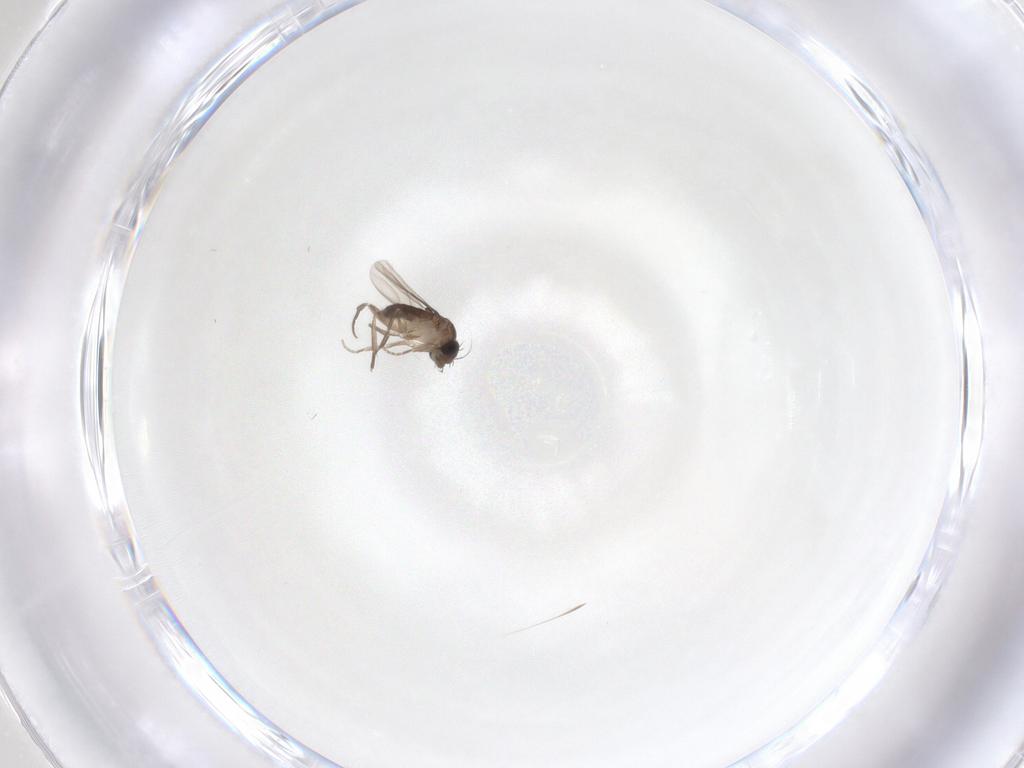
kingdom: Animalia
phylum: Arthropoda
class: Insecta
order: Diptera
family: Phoridae
